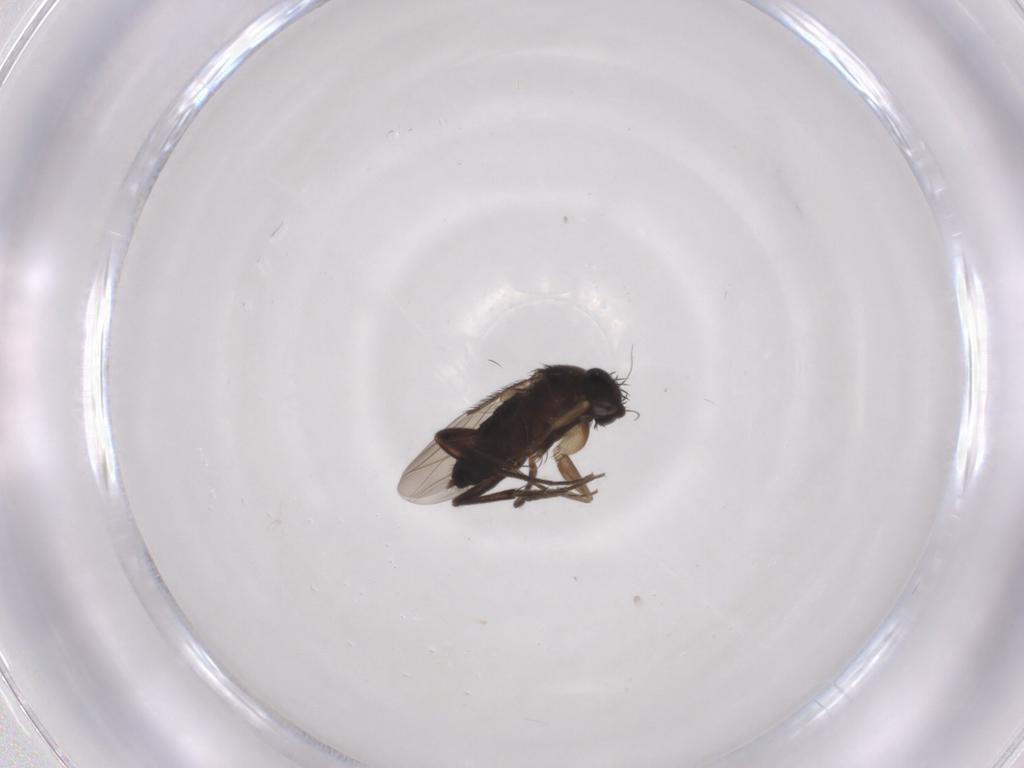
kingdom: Animalia
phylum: Arthropoda
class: Insecta
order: Diptera
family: Phoridae
